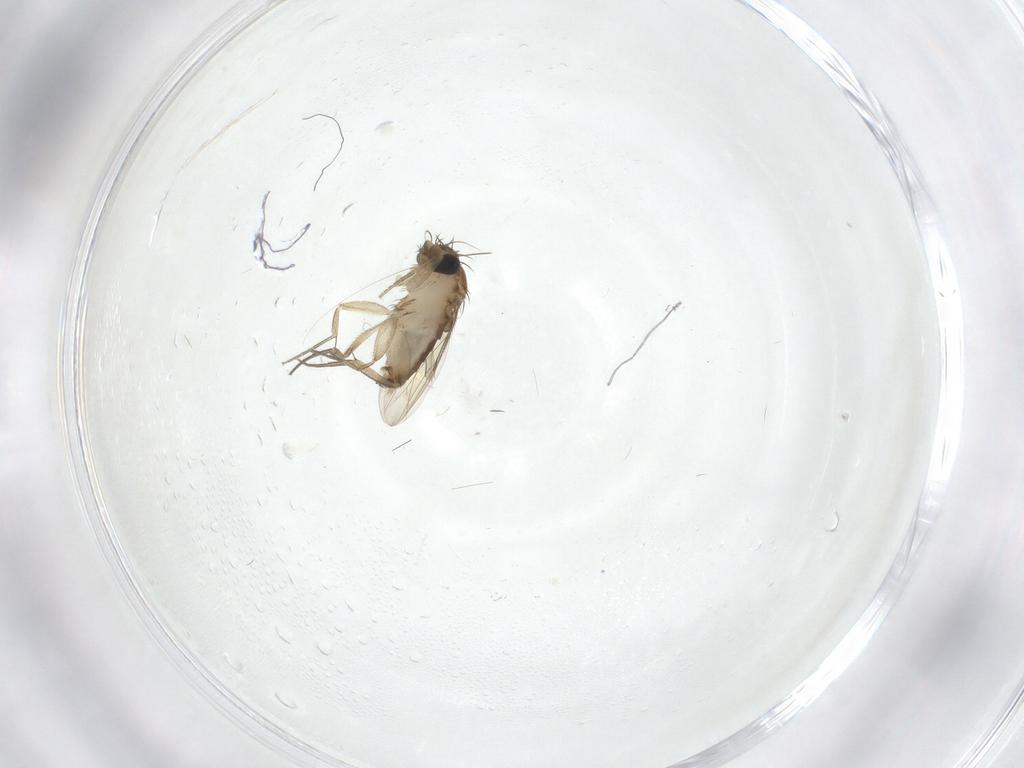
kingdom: Animalia
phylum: Arthropoda
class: Insecta
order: Diptera
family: Phoridae
